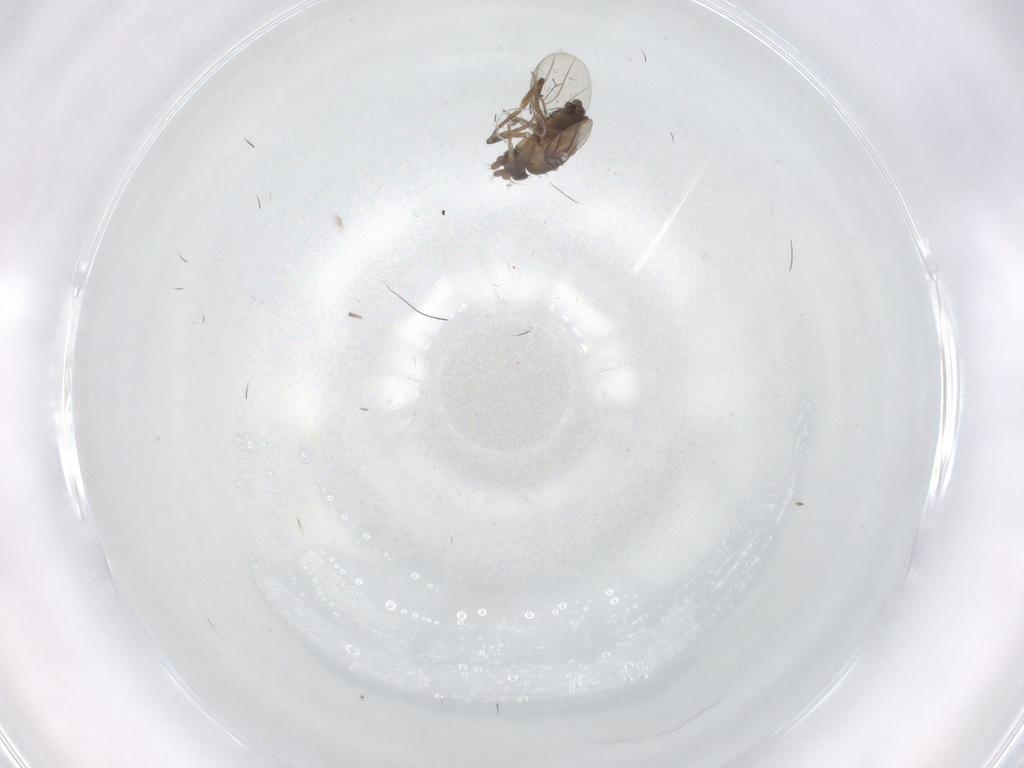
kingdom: Animalia
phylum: Arthropoda
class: Insecta
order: Diptera
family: Phoridae
